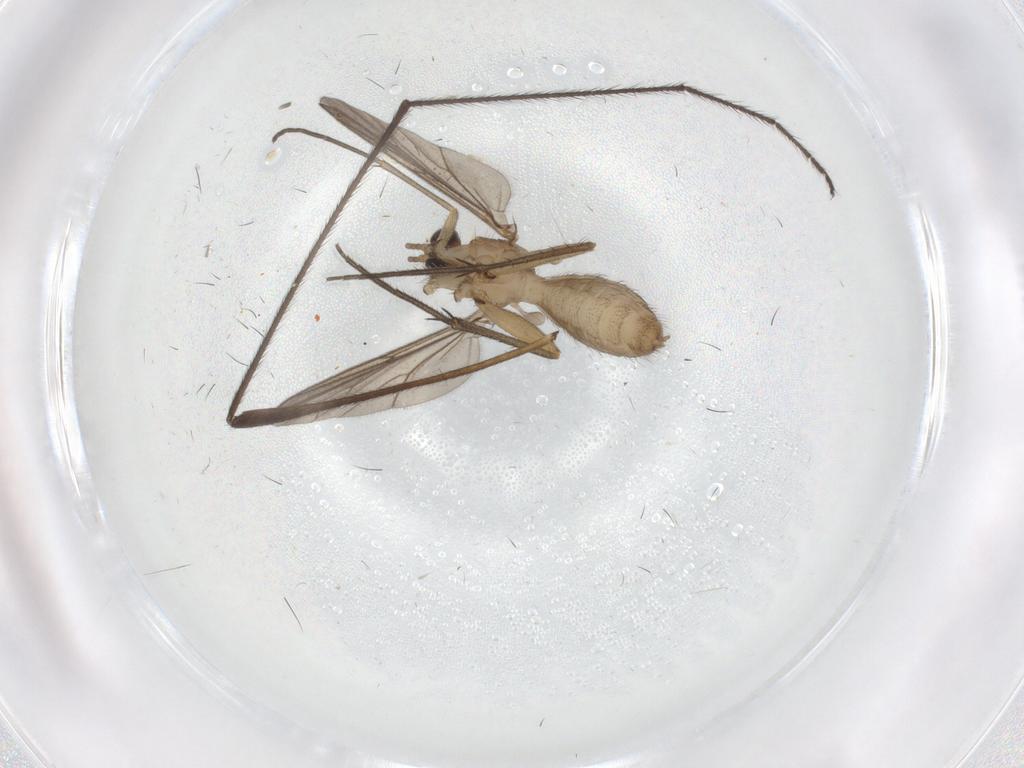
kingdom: Animalia
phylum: Arthropoda
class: Insecta
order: Diptera
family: Mycetophilidae
